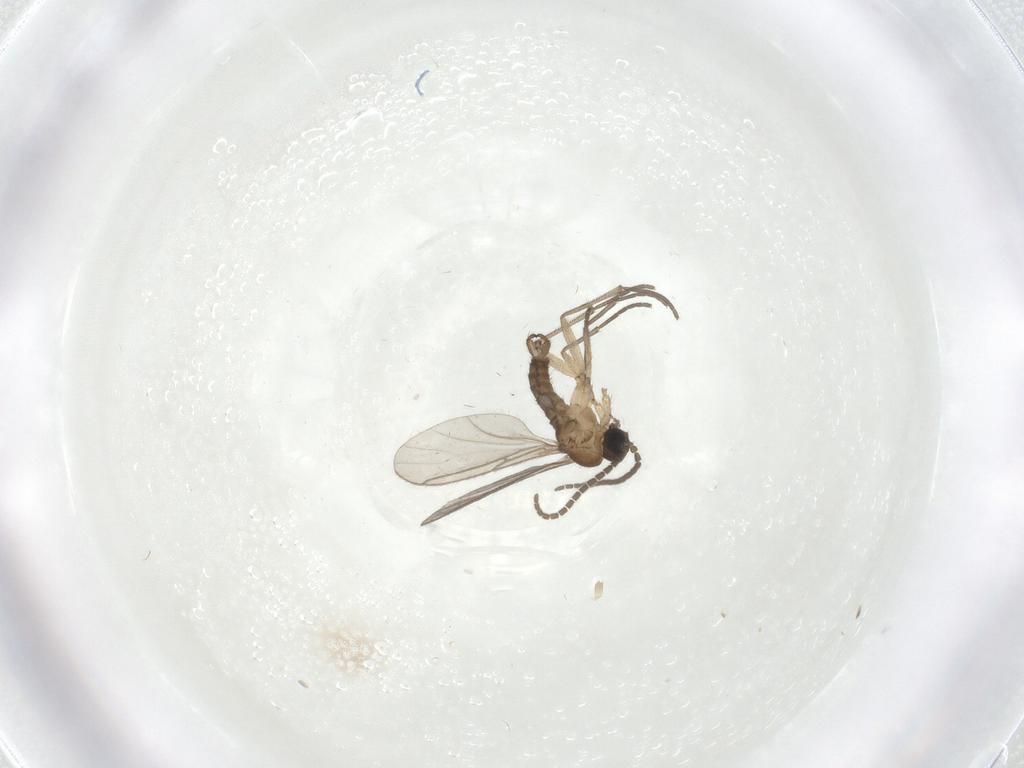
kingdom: Animalia
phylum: Arthropoda
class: Insecta
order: Diptera
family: Sciaridae
